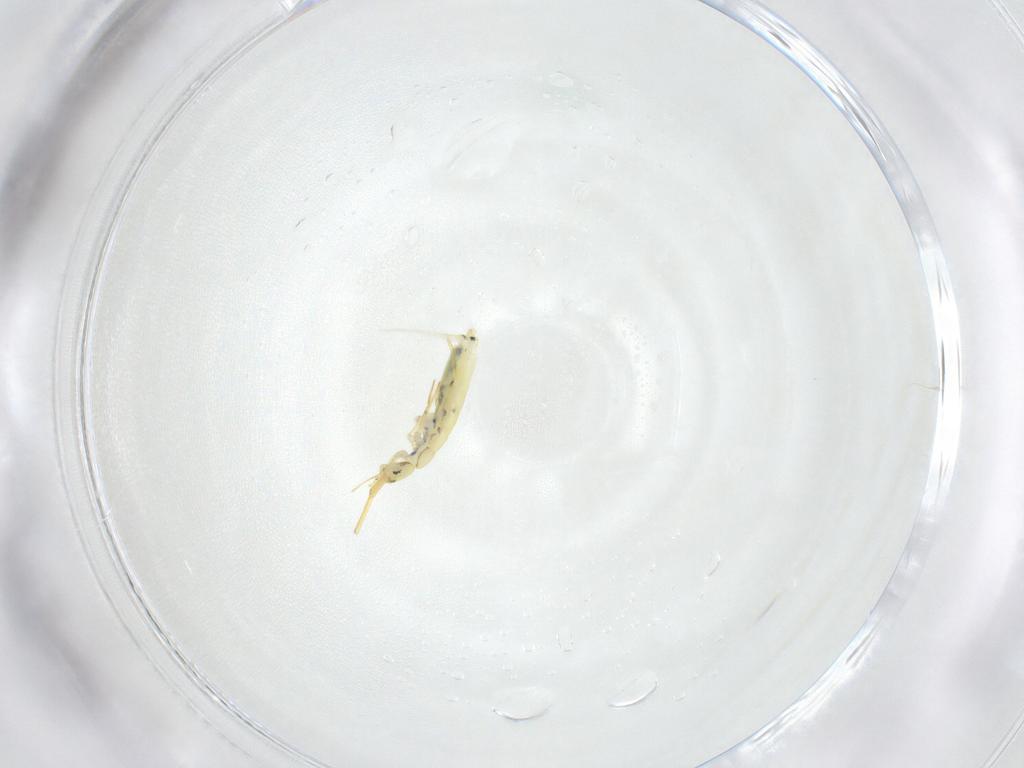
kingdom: Animalia
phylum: Arthropoda
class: Collembola
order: Entomobryomorpha
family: Entomobryidae
